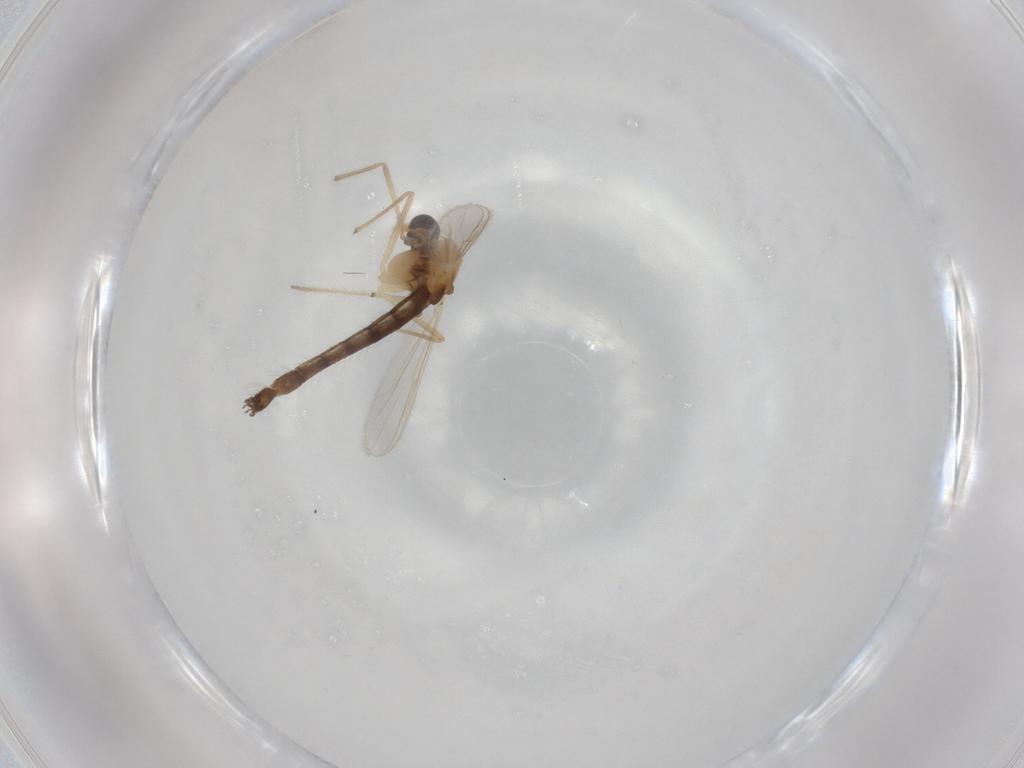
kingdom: Animalia
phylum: Arthropoda
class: Insecta
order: Diptera
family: Chironomidae
